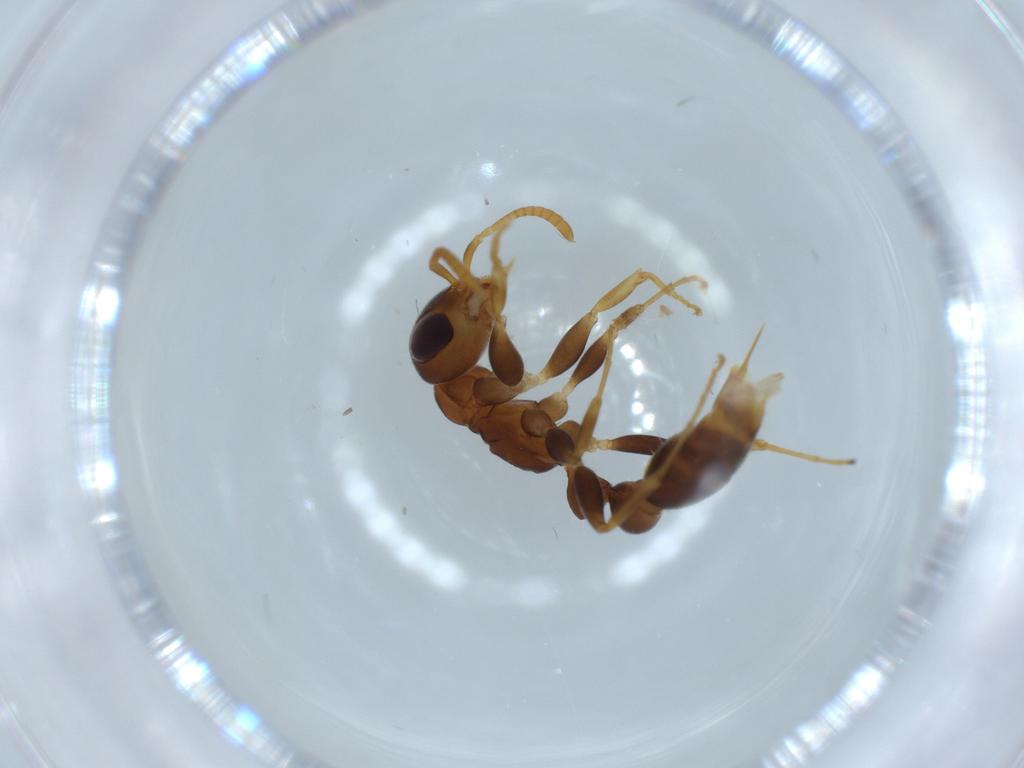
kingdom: Animalia
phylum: Arthropoda
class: Insecta
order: Hymenoptera
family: Formicidae
